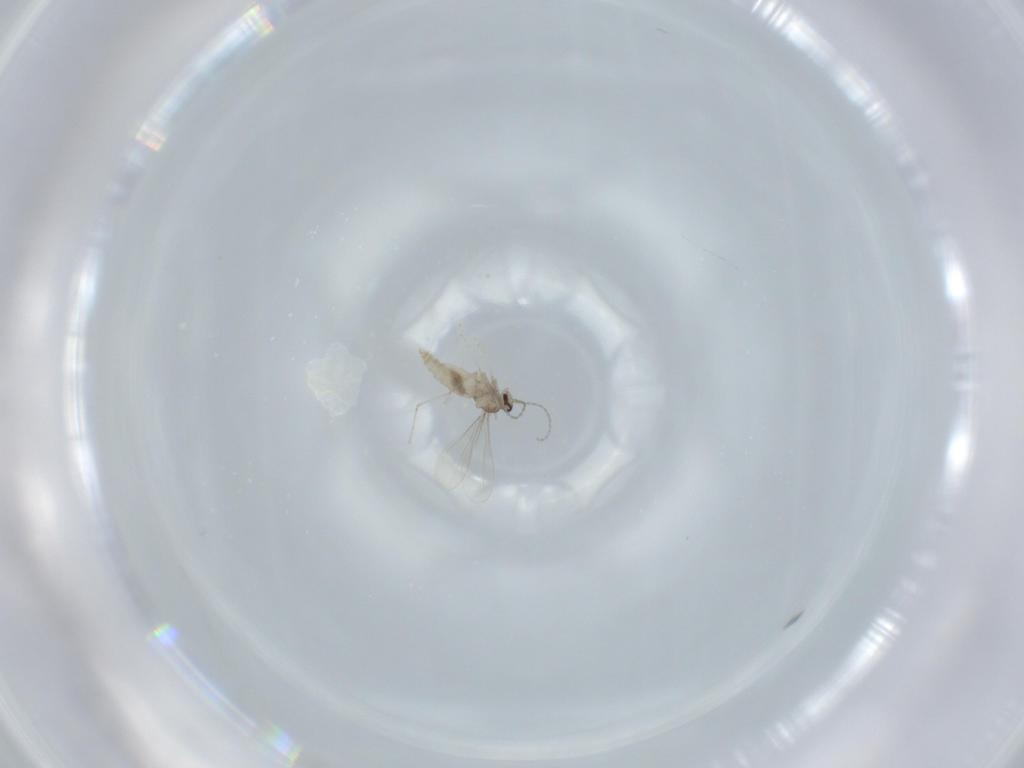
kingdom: Animalia
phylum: Arthropoda
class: Insecta
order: Diptera
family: Cecidomyiidae
